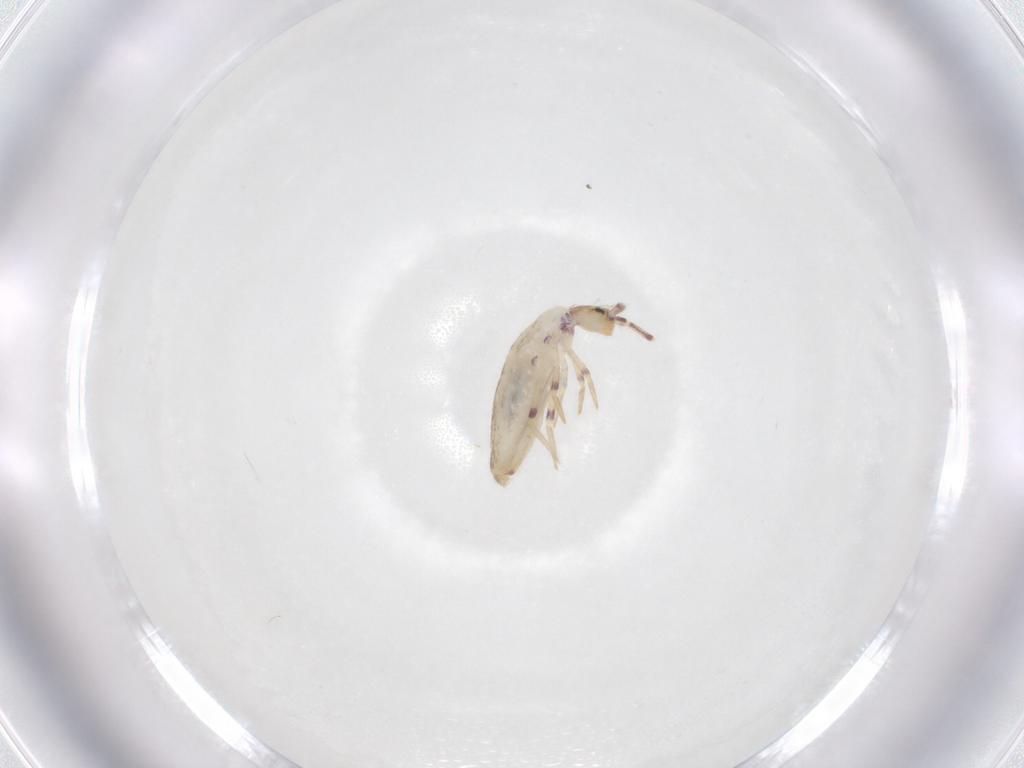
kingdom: Animalia
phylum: Arthropoda
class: Collembola
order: Entomobryomorpha
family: Entomobryidae
